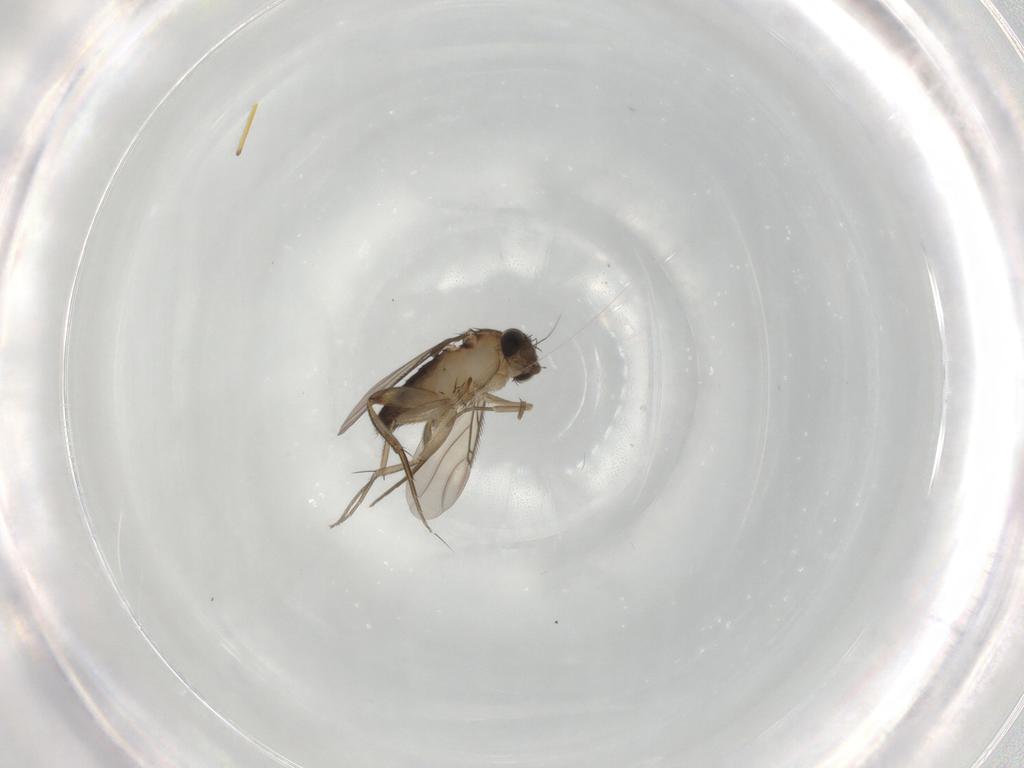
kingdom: Animalia
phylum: Arthropoda
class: Insecta
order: Diptera
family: Phoridae
